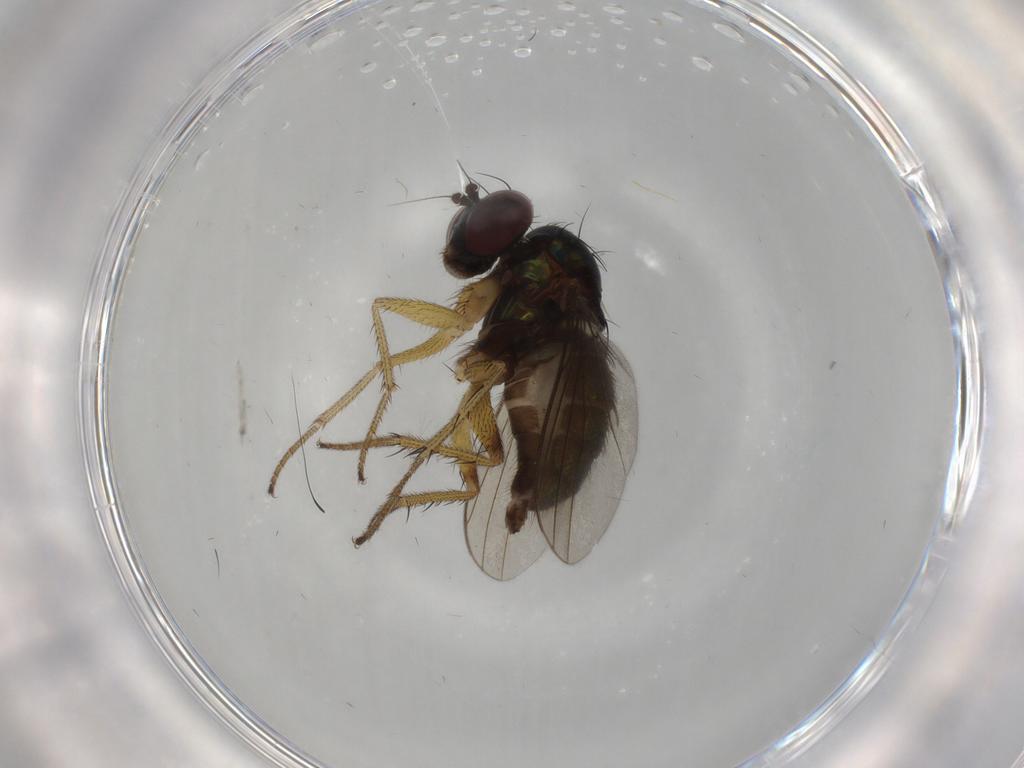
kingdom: Animalia
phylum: Arthropoda
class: Insecta
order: Diptera
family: Dolichopodidae
